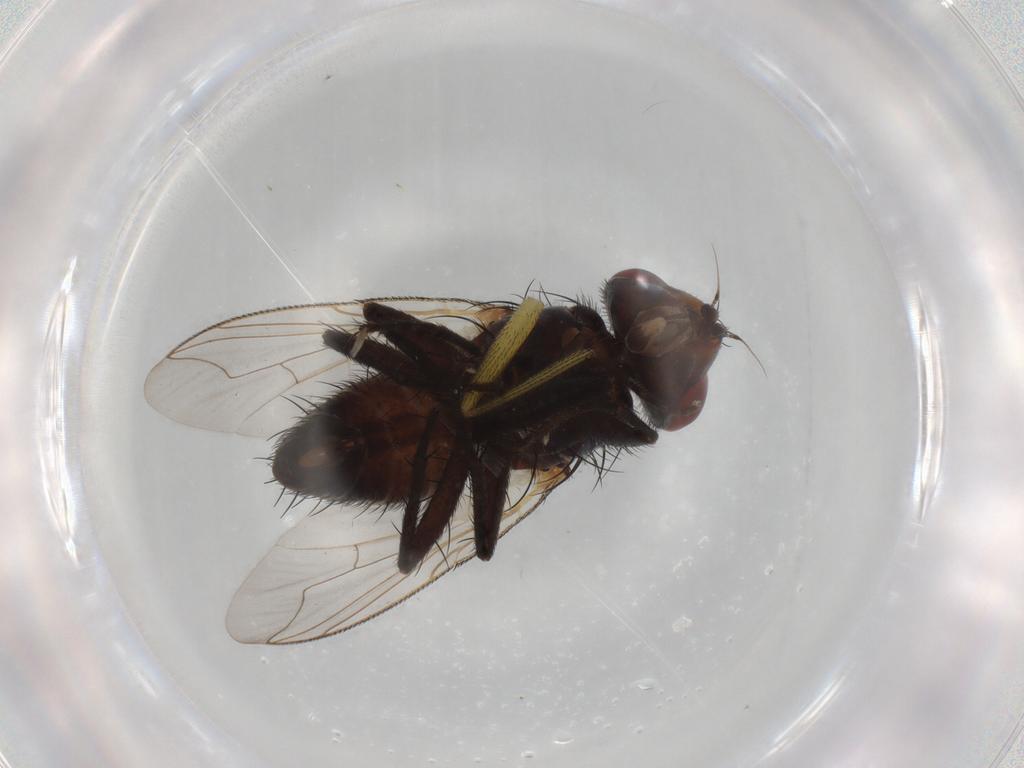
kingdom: Animalia
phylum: Arthropoda
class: Insecta
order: Diptera
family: Sarcophagidae
